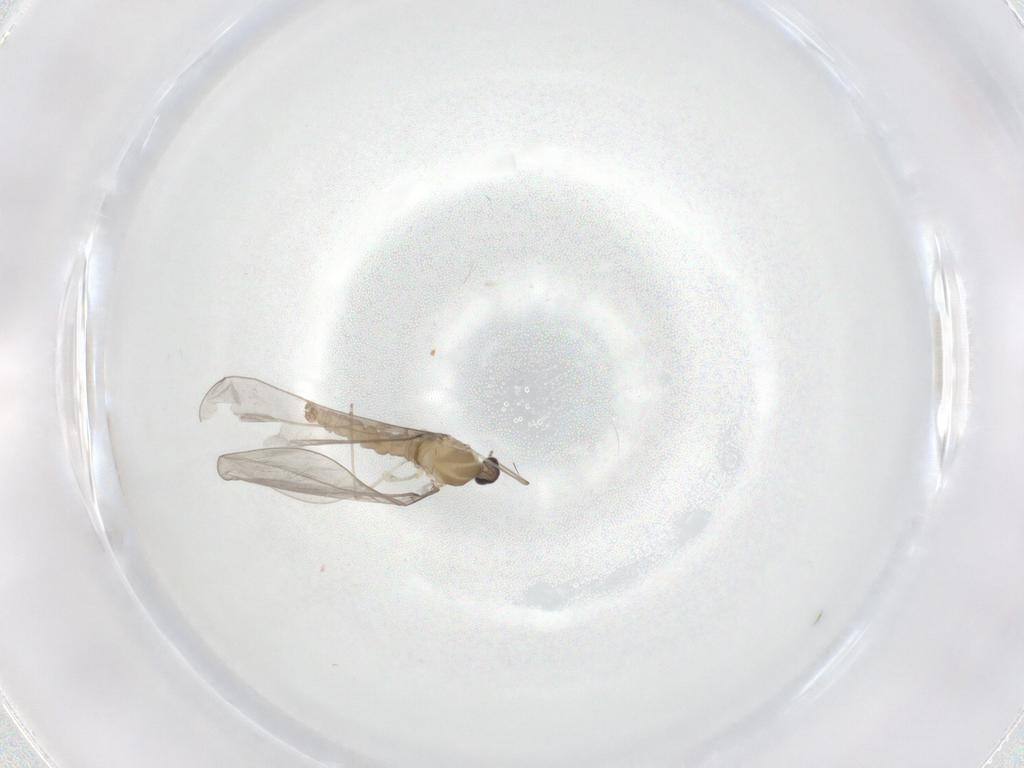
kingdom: Animalia
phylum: Arthropoda
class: Insecta
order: Diptera
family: Cecidomyiidae
